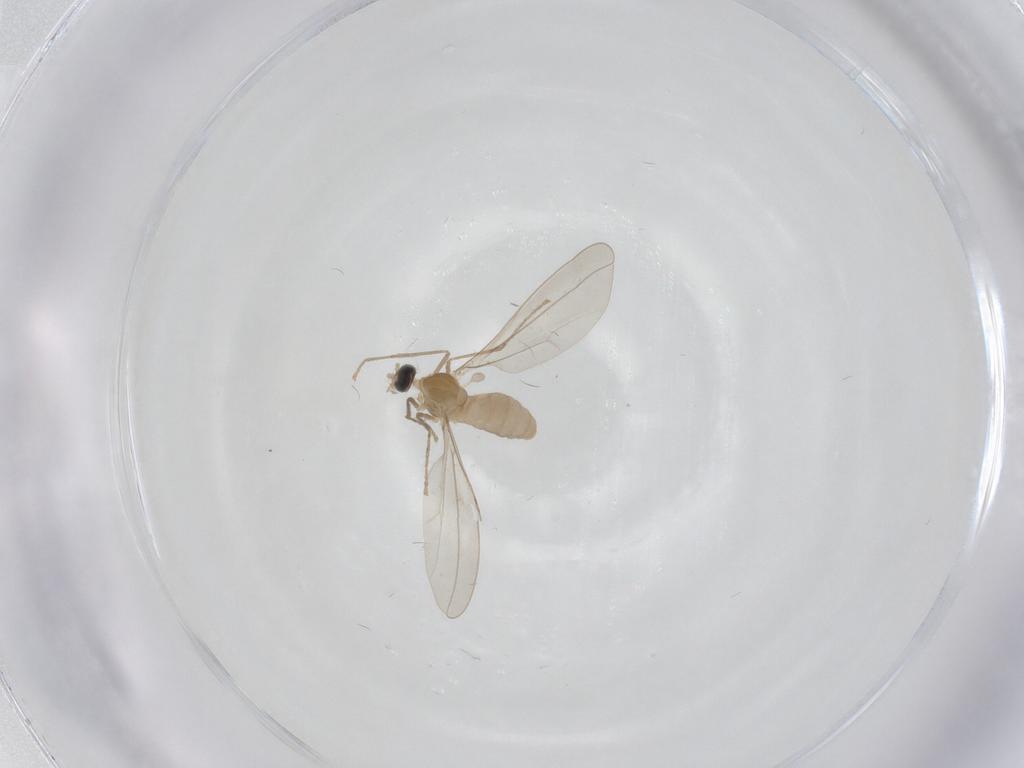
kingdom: Animalia
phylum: Arthropoda
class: Insecta
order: Diptera
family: Cecidomyiidae
